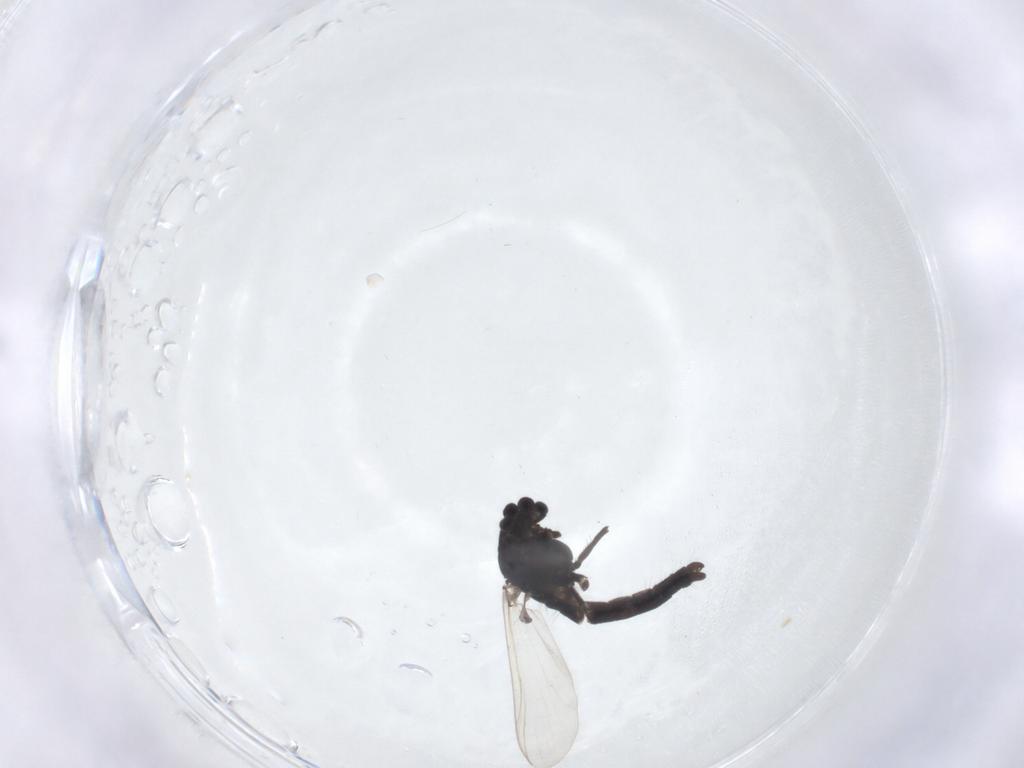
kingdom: Animalia
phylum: Arthropoda
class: Insecta
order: Diptera
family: Chironomidae
